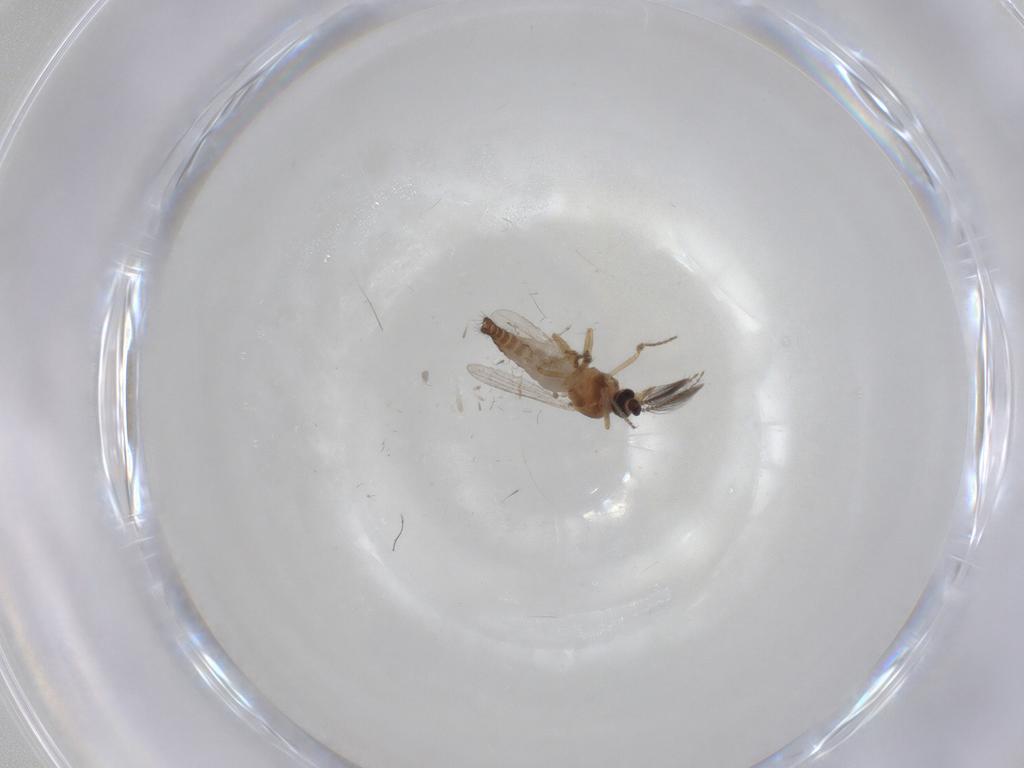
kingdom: Animalia
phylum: Arthropoda
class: Insecta
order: Diptera
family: Ceratopogonidae
